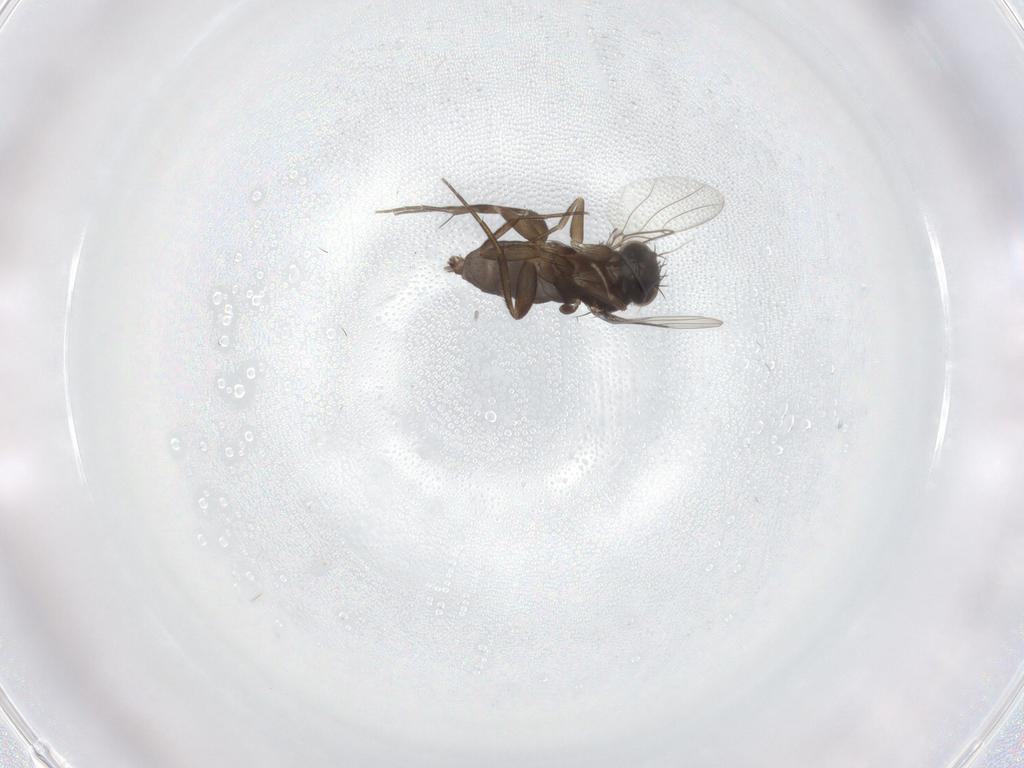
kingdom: Animalia
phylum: Arthropoda
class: Insecta
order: Diptera
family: Phoridae
